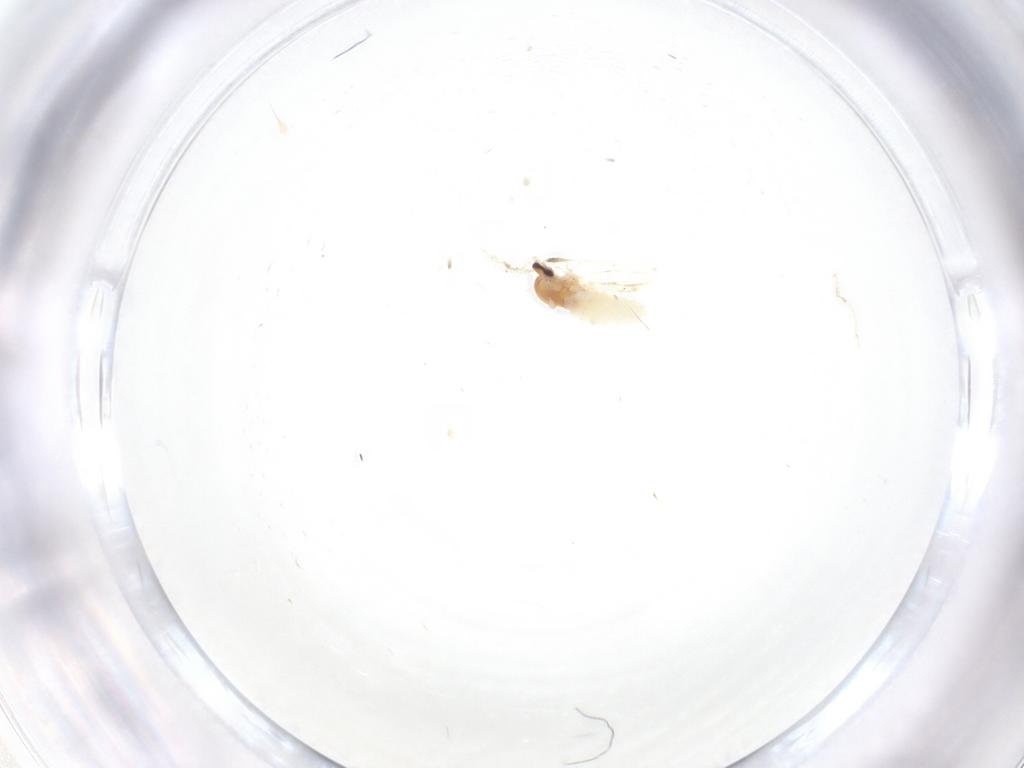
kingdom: Animalia
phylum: Arthropoda
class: Insecta
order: Diptera
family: Cecidomyiidae
